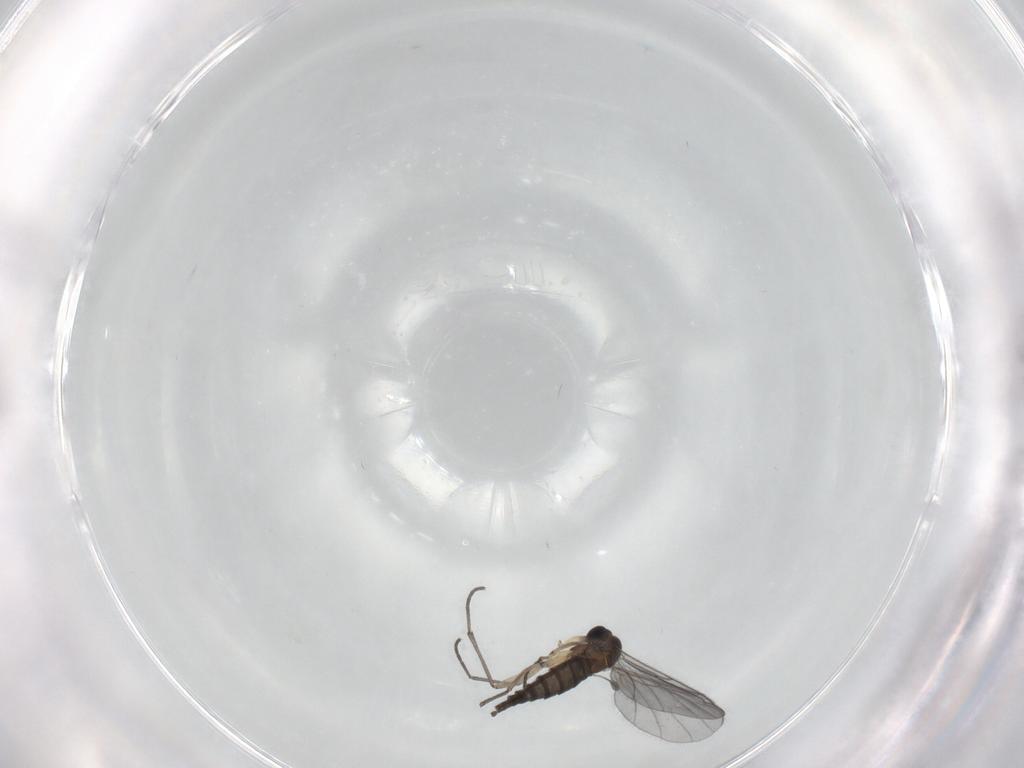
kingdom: Animalia
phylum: Arthropoda
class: Insecta
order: Diptera
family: Sciaridae
